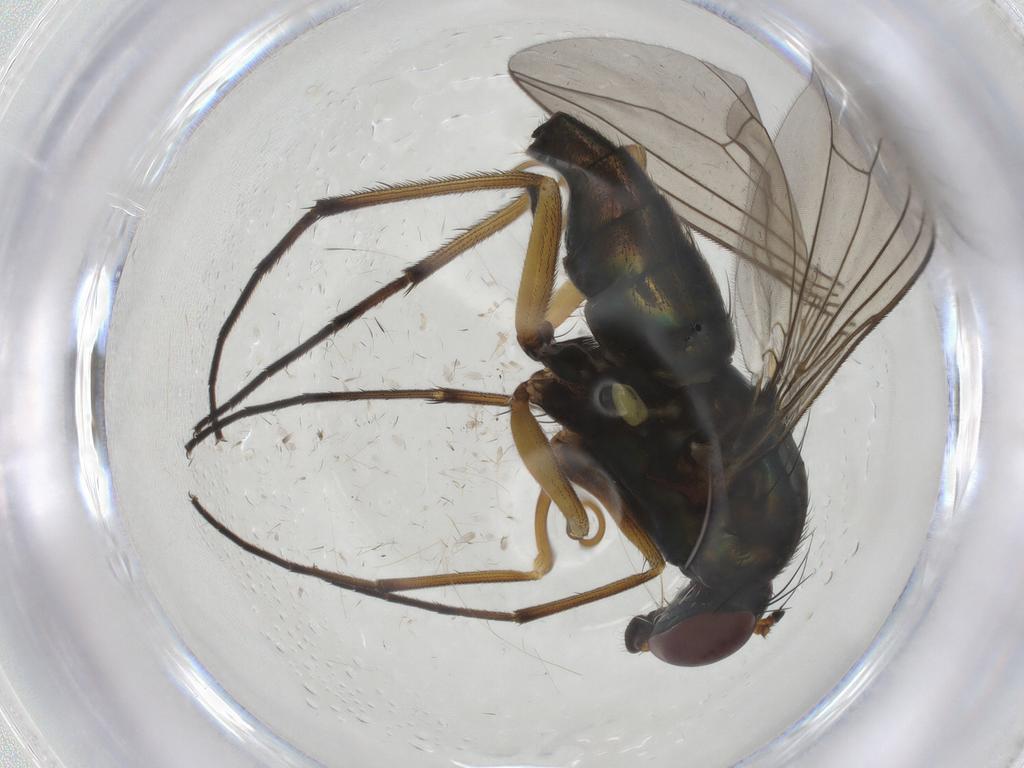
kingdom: Animalia
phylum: Arthropoda
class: Insecta
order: Diptera
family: Dolichopodidae
